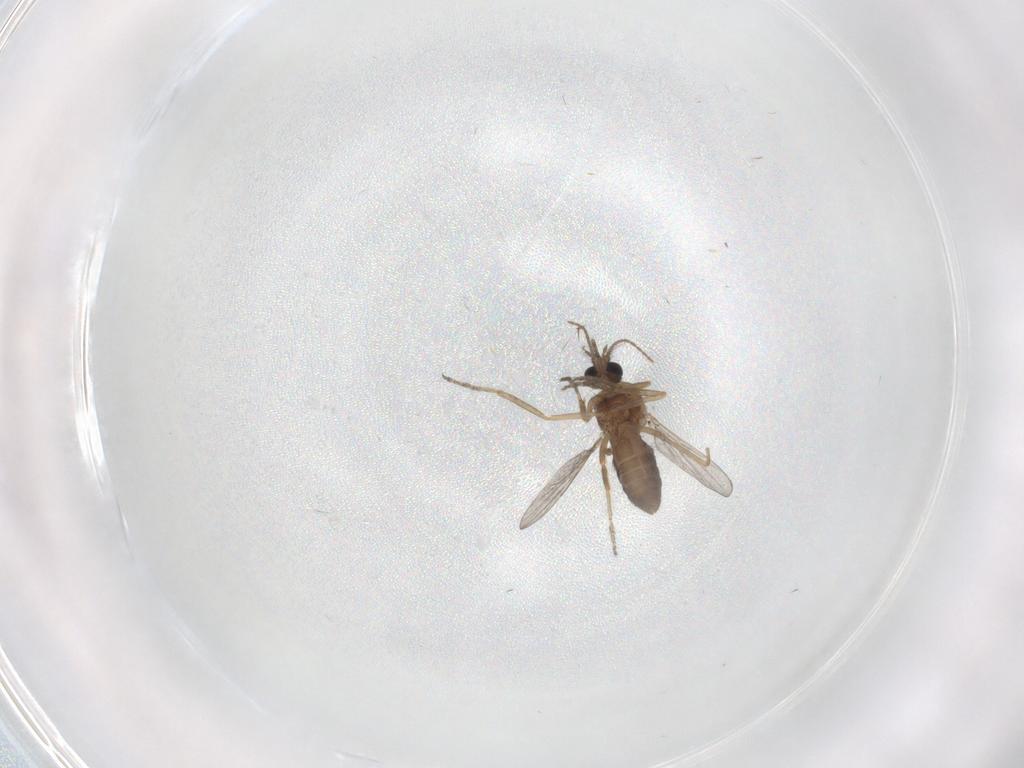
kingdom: Animalia
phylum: Arthropoda
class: Insecta
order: Diptera
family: Ceratopogonidae
